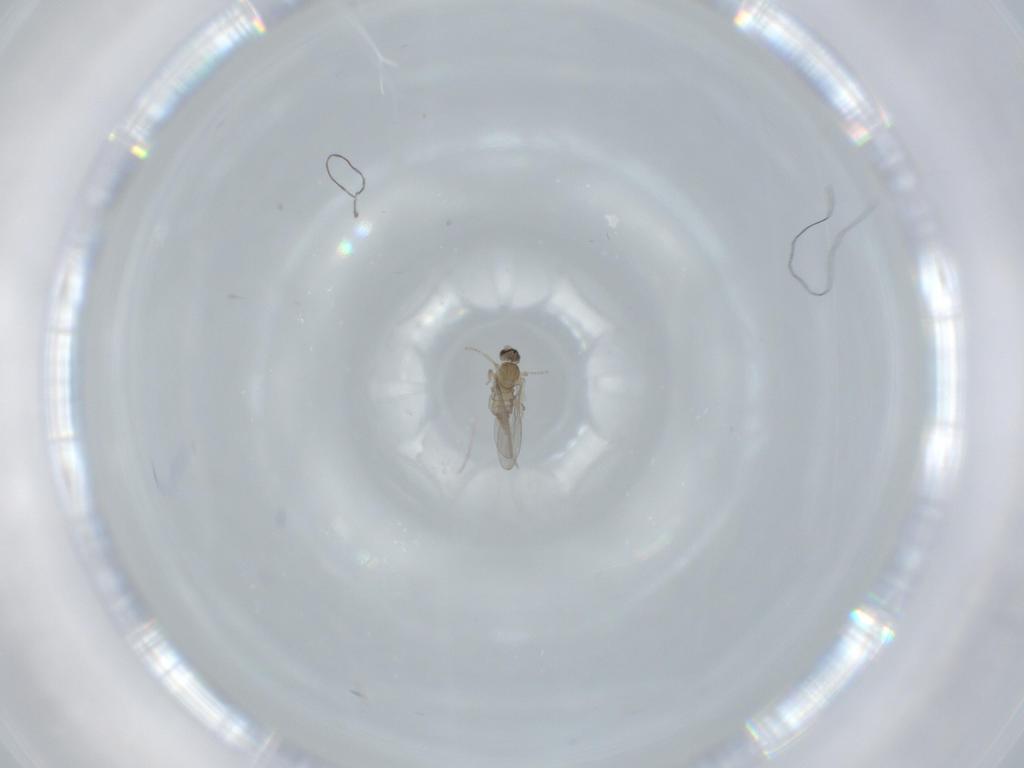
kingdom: Animalia
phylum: Arthropoda
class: Insecta
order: Diptera
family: Cecidomyiidae
